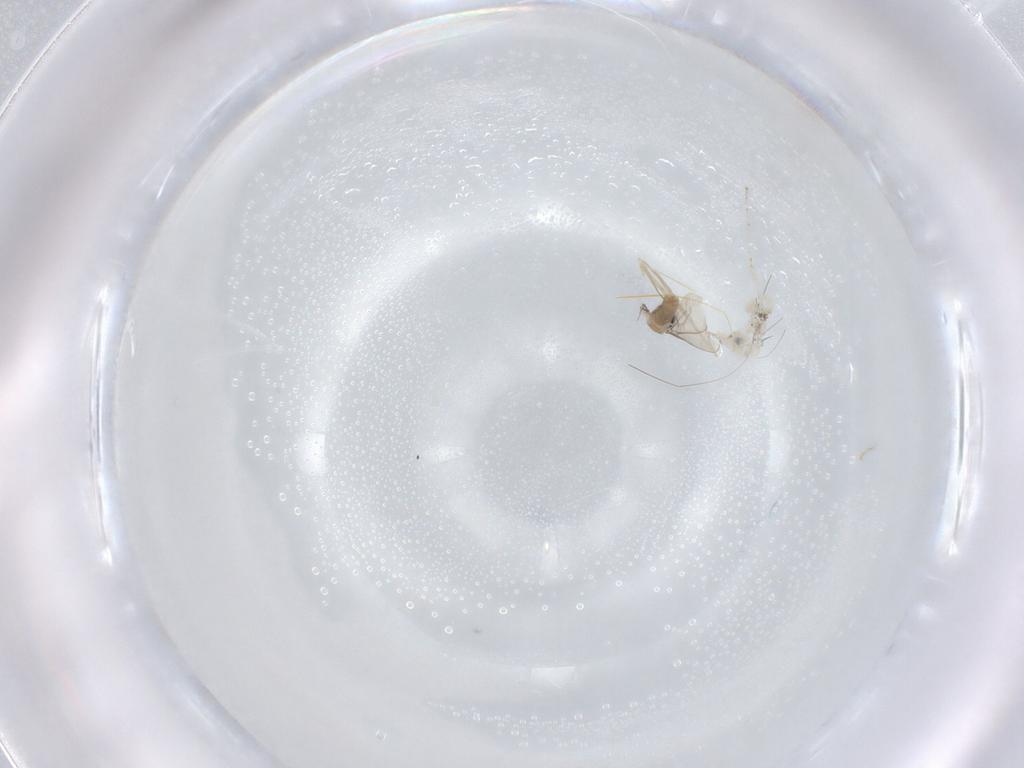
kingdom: Animalia
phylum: Arthropoda
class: Insecta
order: Diptera
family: Cecidomyiidae
